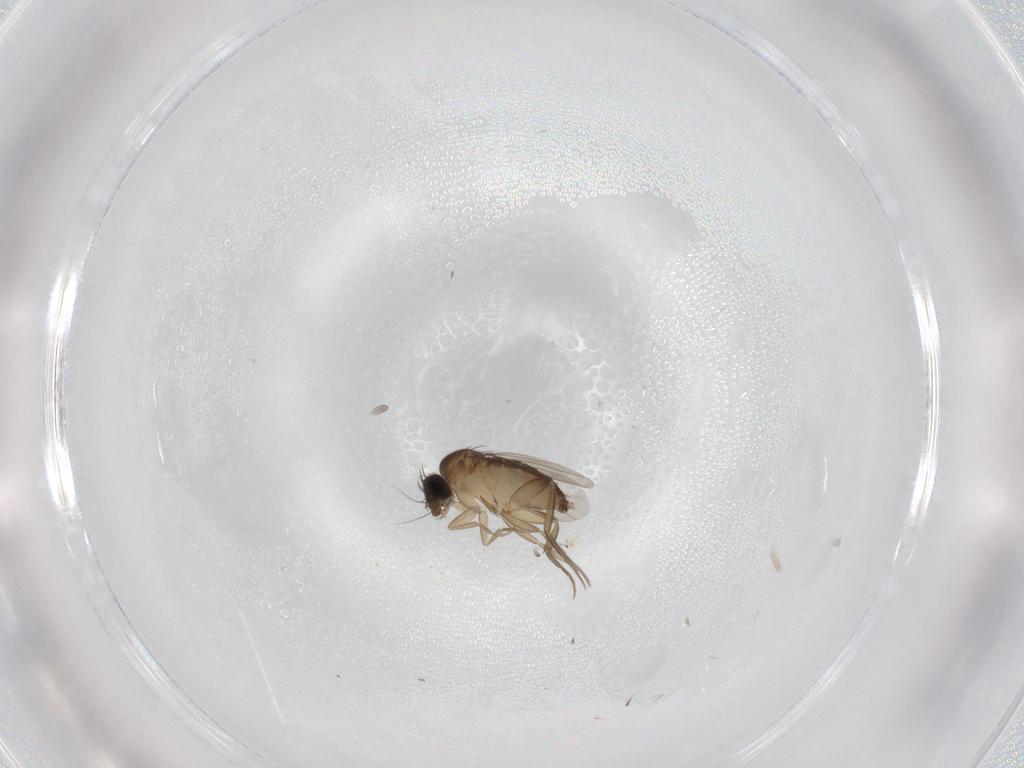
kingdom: Animalia
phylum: Arthropoda
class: Insecta
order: Diptera
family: Phoridae
